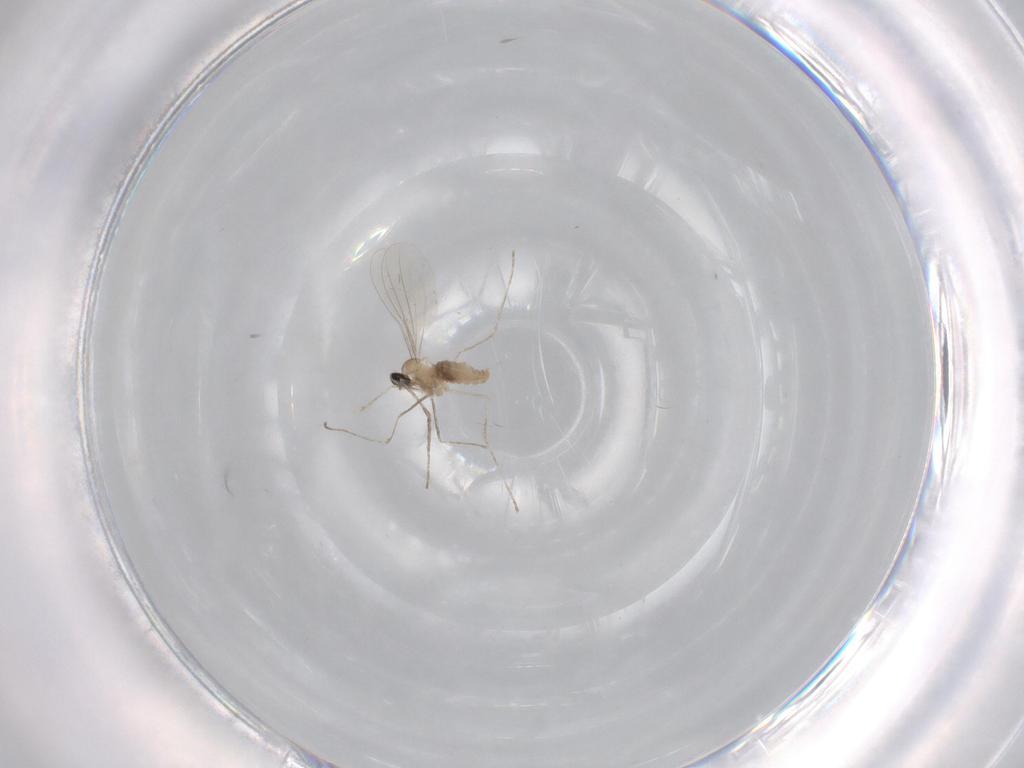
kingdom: Animalia
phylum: Arthropoda
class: Insecta
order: Diptera
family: Cecidomyiidae
